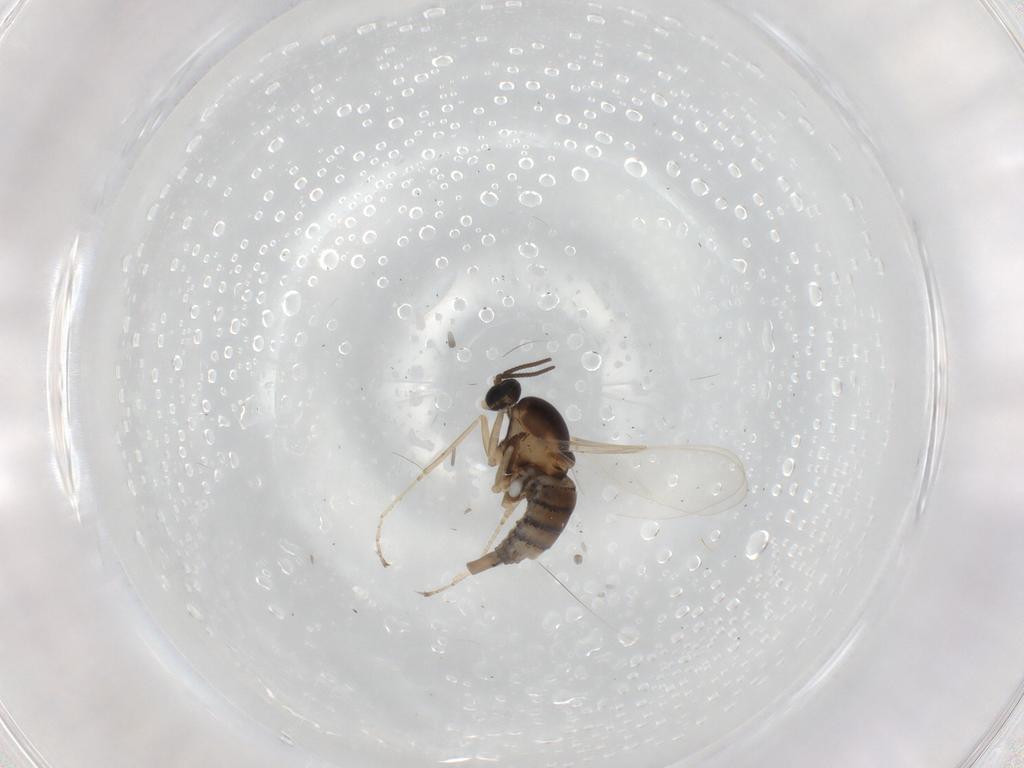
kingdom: Animalia
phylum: Arthropoda
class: Insecta
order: Diptera
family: Cecidomyiidae
